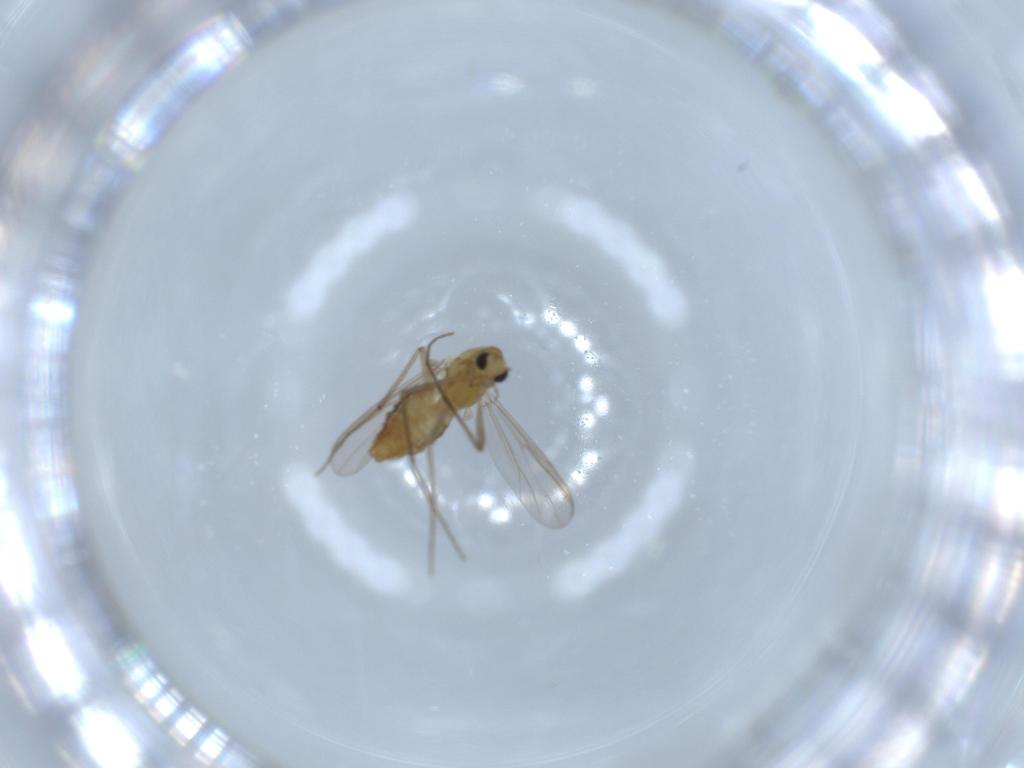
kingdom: Animalia
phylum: Arthropoda
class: Insecta
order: Diptera
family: Chironomidae
